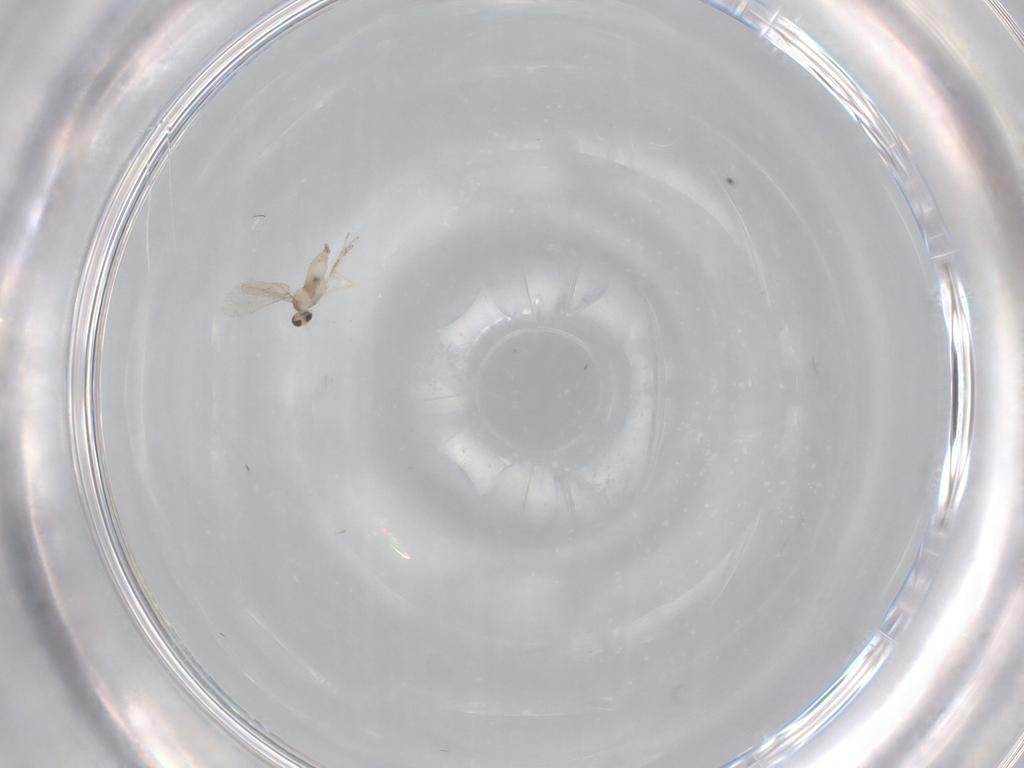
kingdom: Animalia
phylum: Arthropoda
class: Insecta
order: Diptera
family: Cecidomyiidae
